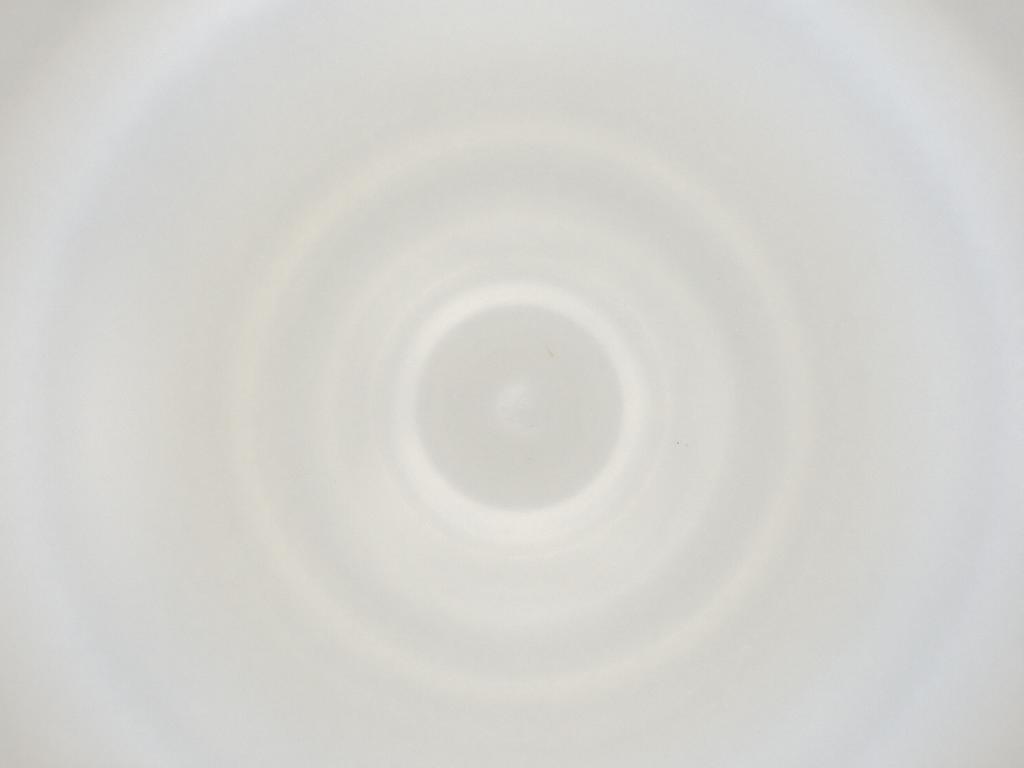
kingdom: Animalia
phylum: Arthropoda
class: Insecta
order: Diptera
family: Cecidomyiidae
